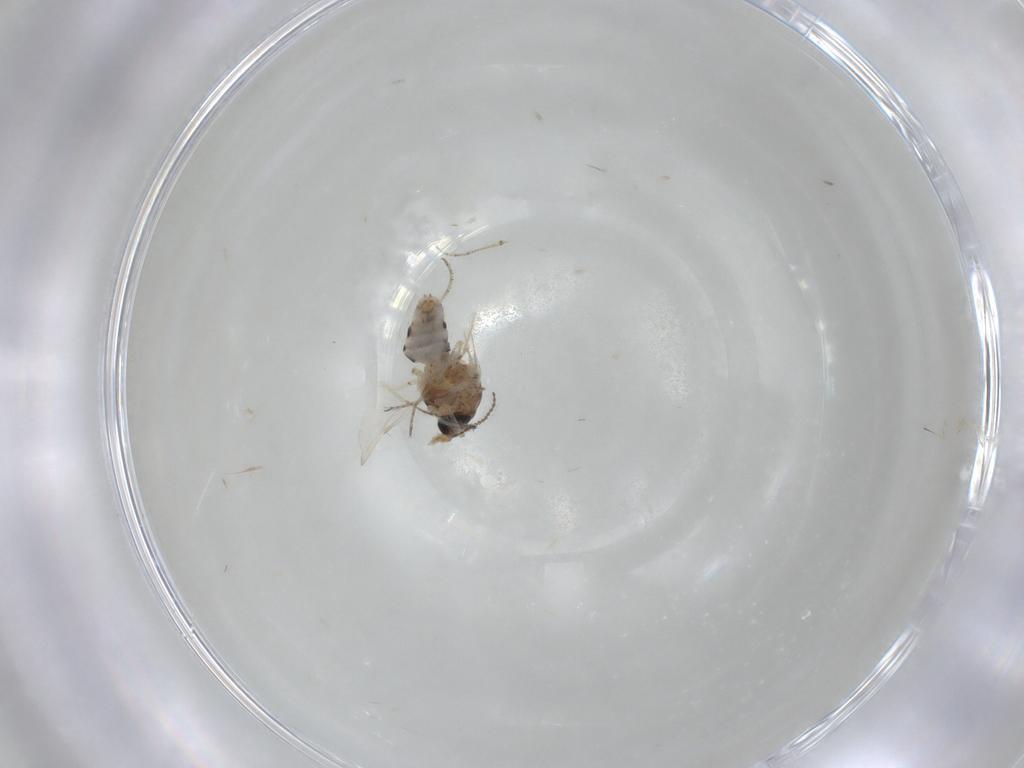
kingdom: Animalia
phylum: Arthropoda
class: Insecta
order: Diptera
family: Ceratopogonidae
